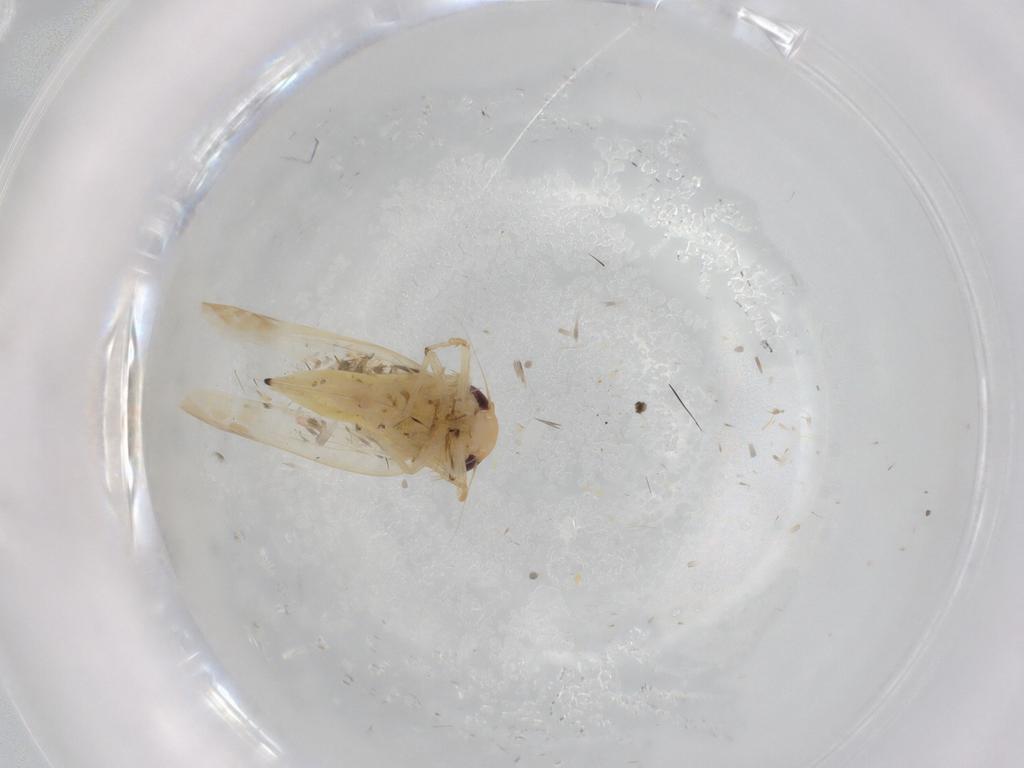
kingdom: Animalia
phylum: Arthropoda
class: Insecta
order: Hemiptera
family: Cicadellidae
